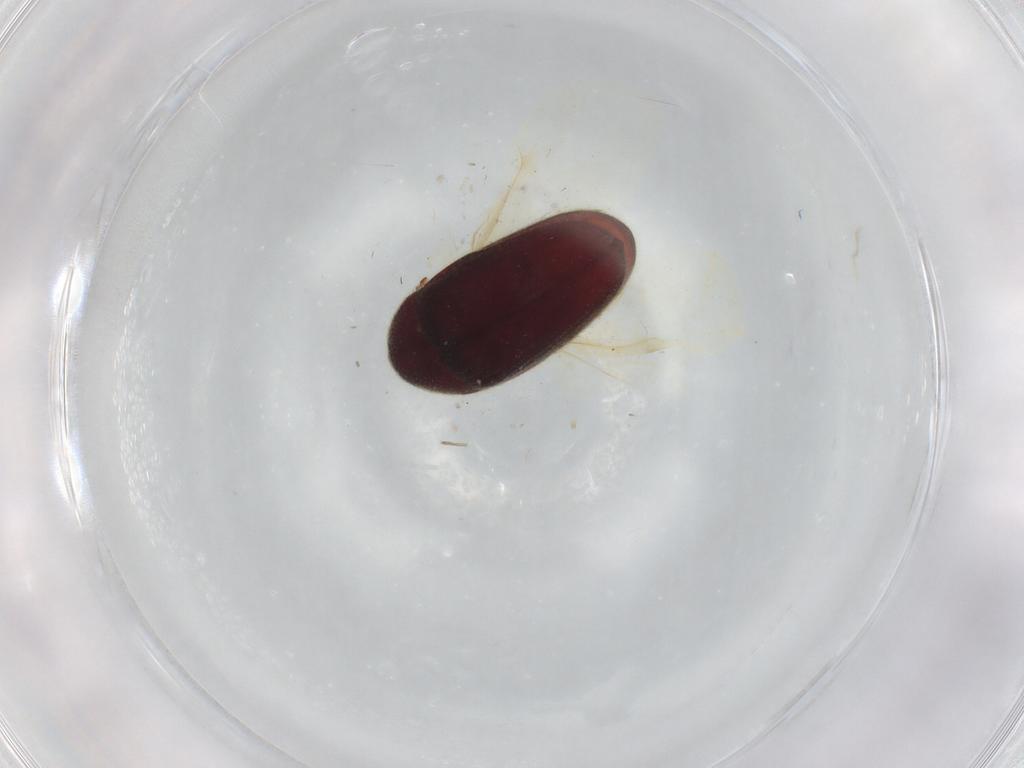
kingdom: Animalia
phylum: Arthropoda
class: Insecta
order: Coleoptera
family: Throscidae
